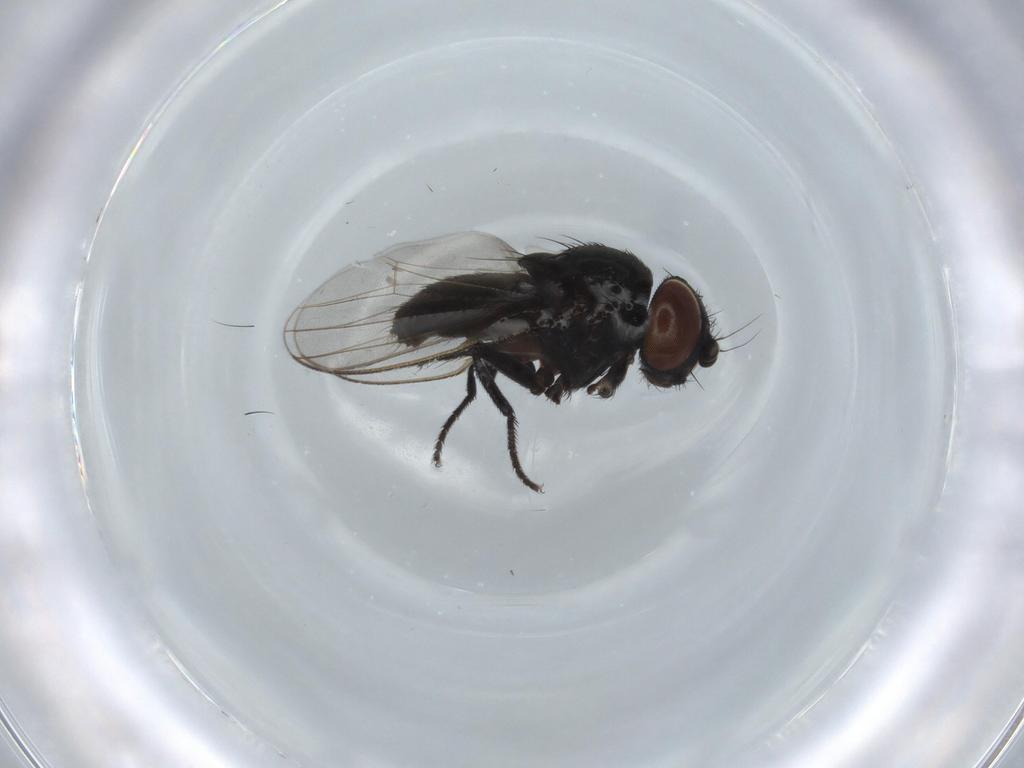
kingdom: Animalia
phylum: Arthropoda
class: Insecta
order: Diptera
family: Milichiidae
